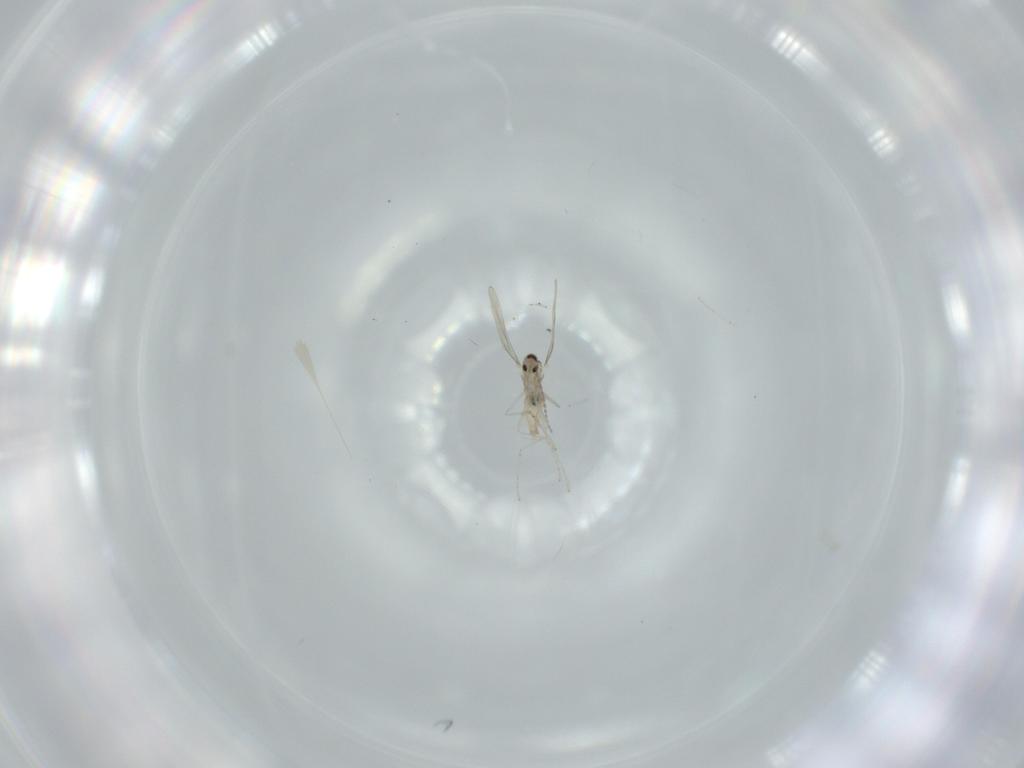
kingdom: Animalia
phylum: Arthropoda
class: Insecta
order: Diptera
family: Cecidomyiidae
